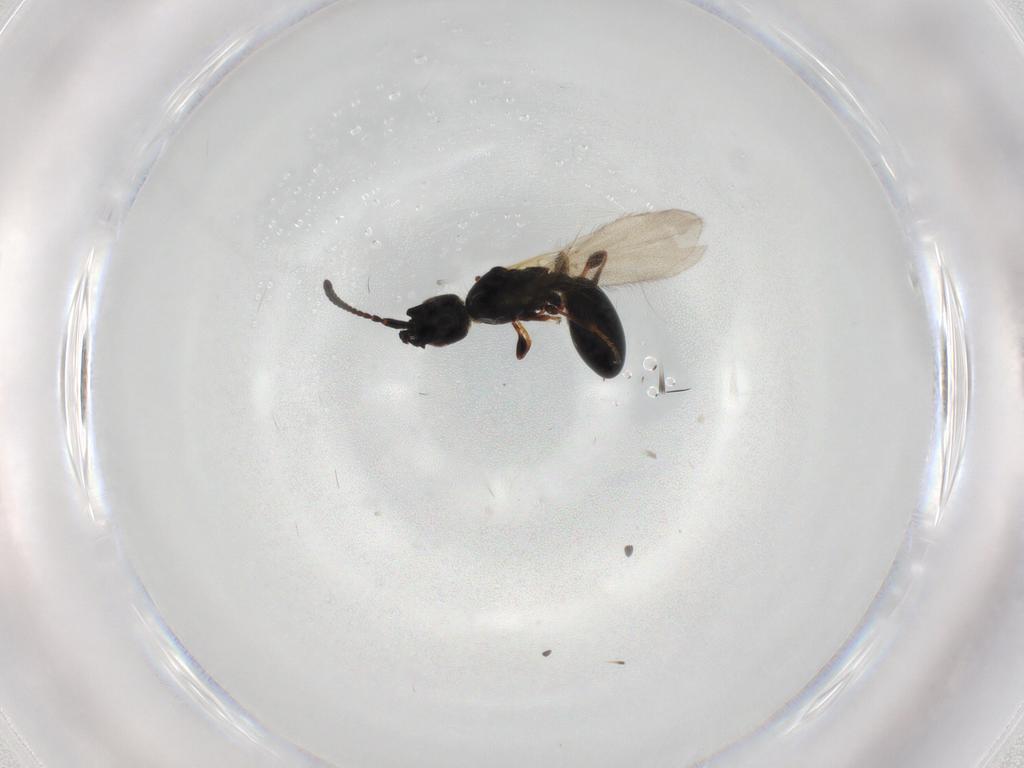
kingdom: Animalia
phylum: Arthropoda
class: Insecta
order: Hymenoptera
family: Diapriidae
